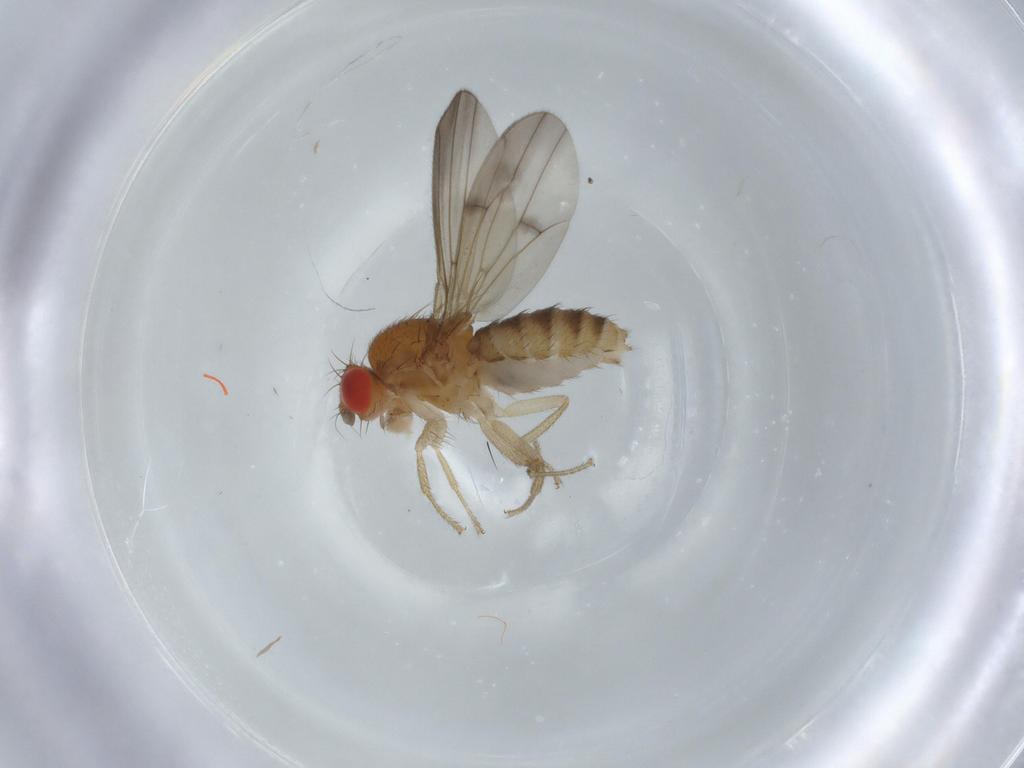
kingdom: Animalia
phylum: Arthropoda
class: Insecta
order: Diptera
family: Drosophilidae
